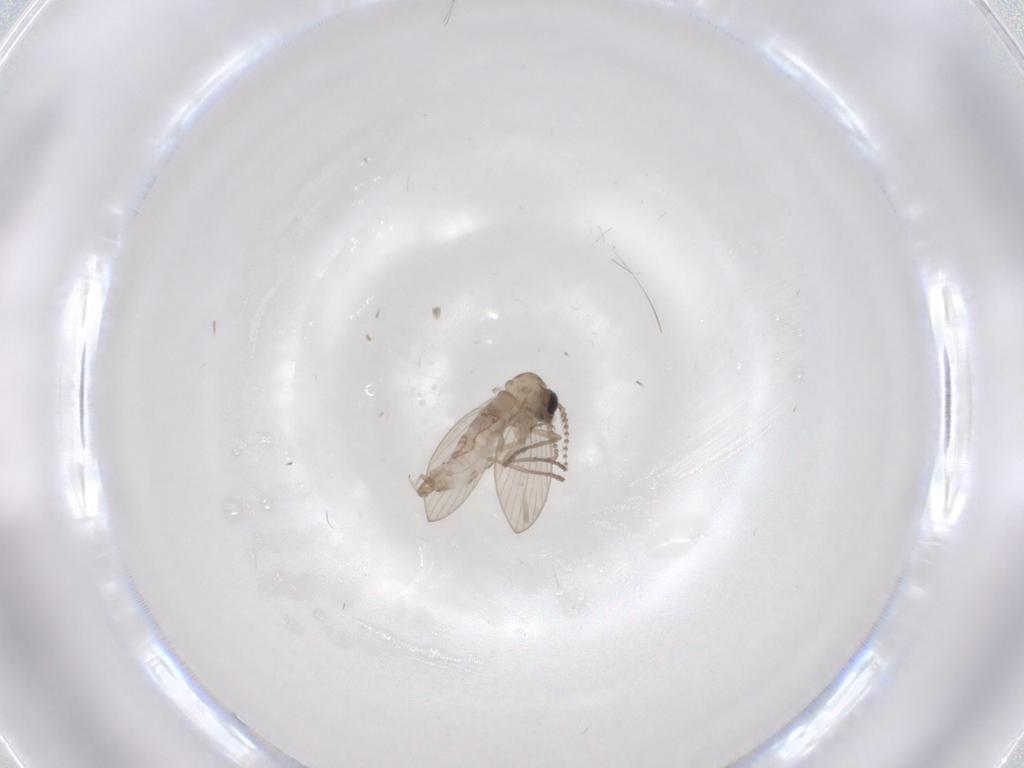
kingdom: Animalia
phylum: Arthropoda
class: Insecta
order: Diptera
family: Psychodidae
